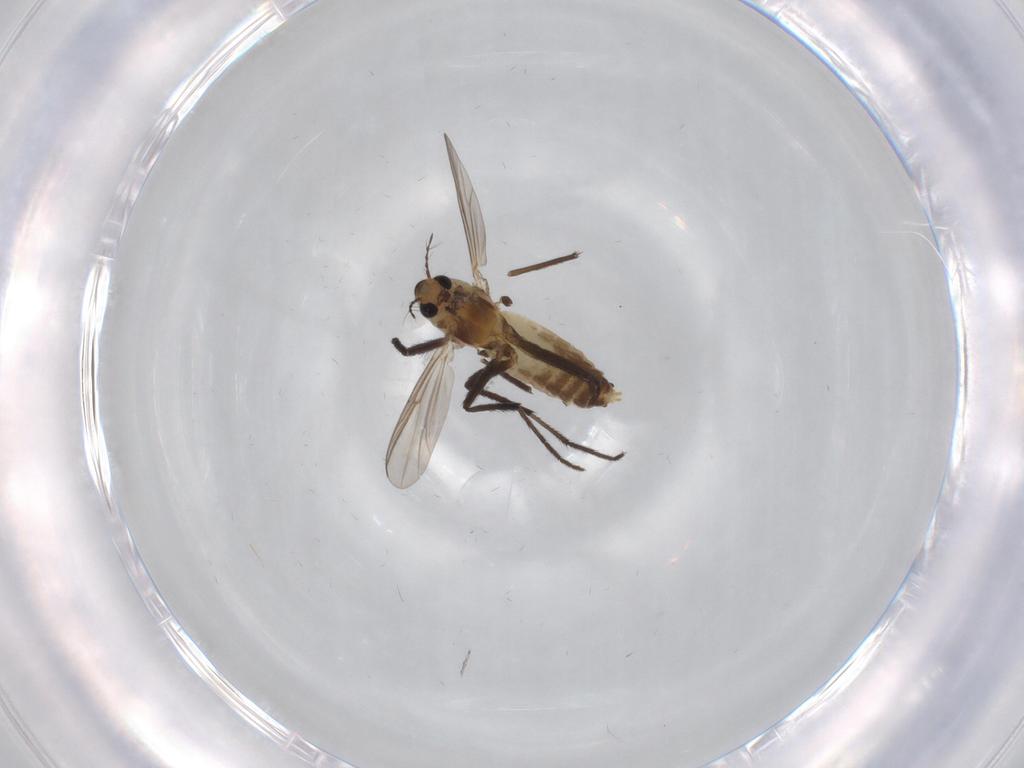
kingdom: Animalia
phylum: Arthropoda
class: Insecta
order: Diptera
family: Chironomidae
